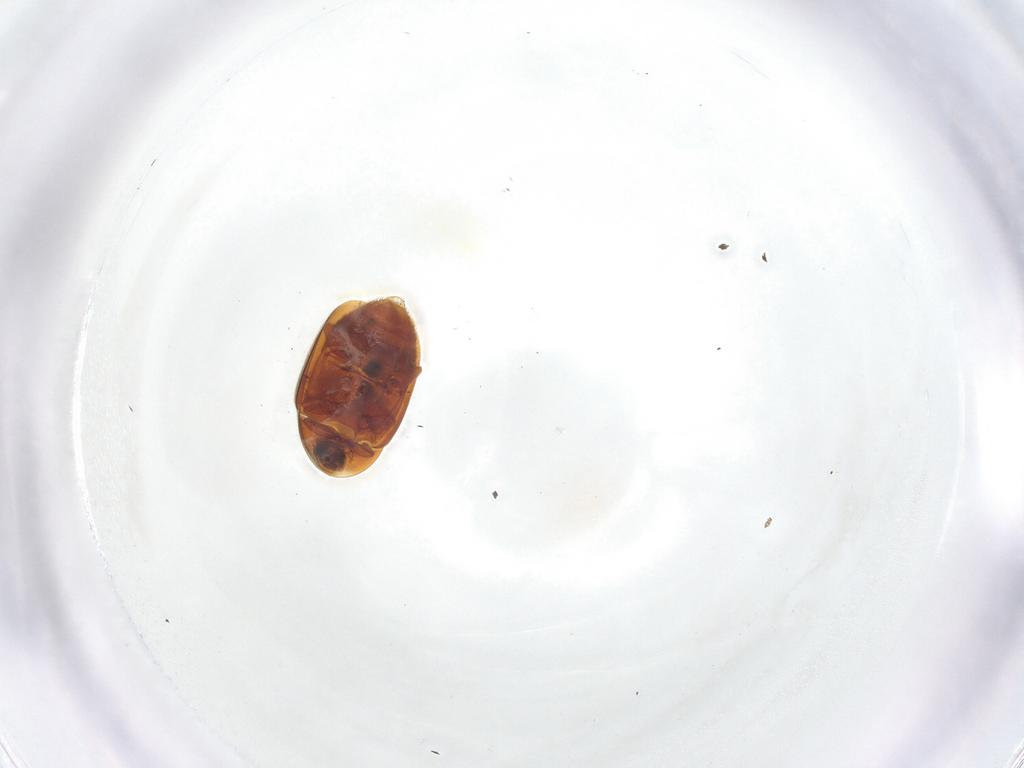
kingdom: Animalia
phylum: Arthropoda
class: Insecta
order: Coleoptera
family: Corylophidae
